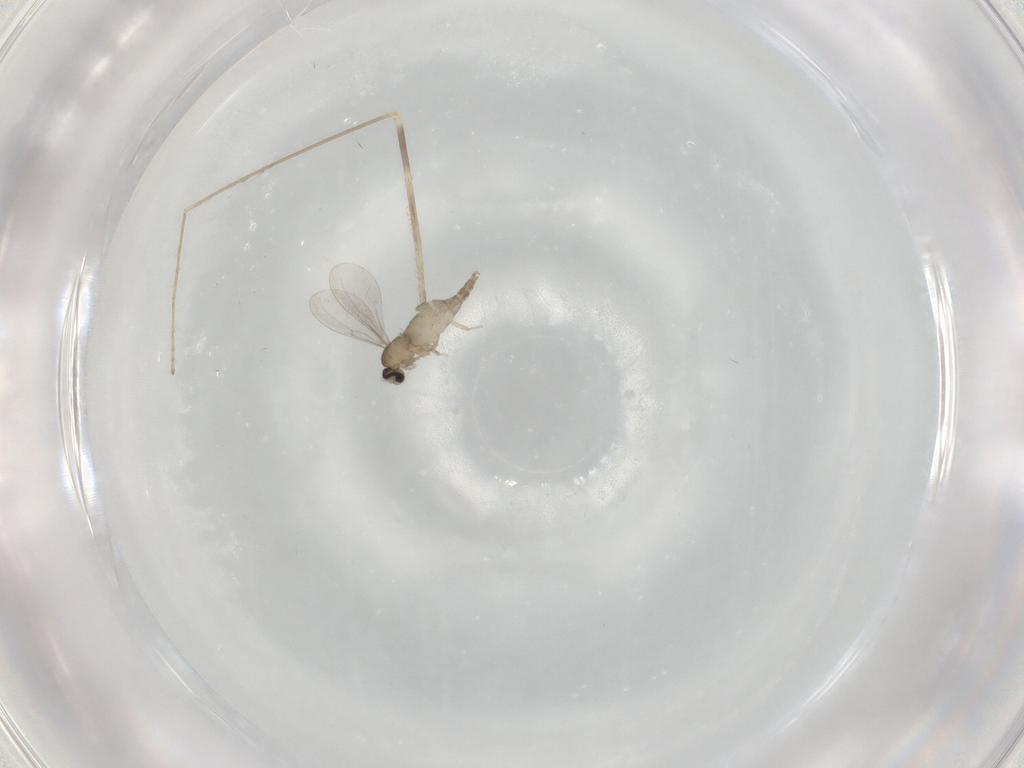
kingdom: Animalia
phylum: Arthropoda
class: Insecta
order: Diptera
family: Cecidomyiidae
